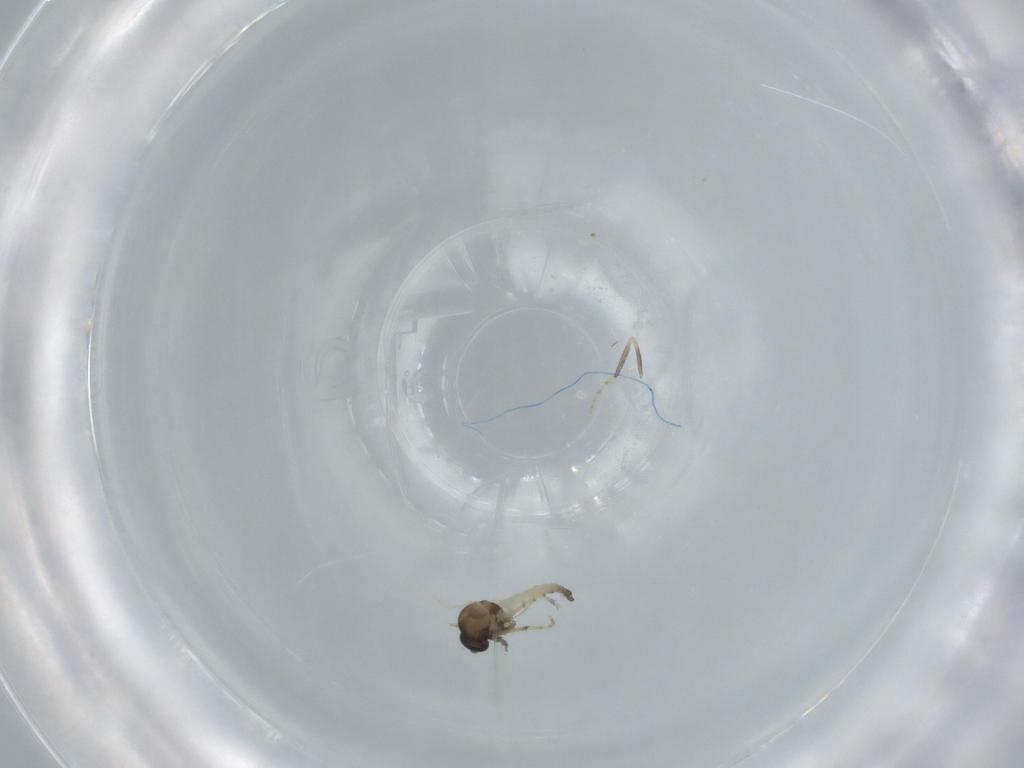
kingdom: Animalia
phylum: Arthropoda
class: Insecta
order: Diptera
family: Ceratopogonidae
